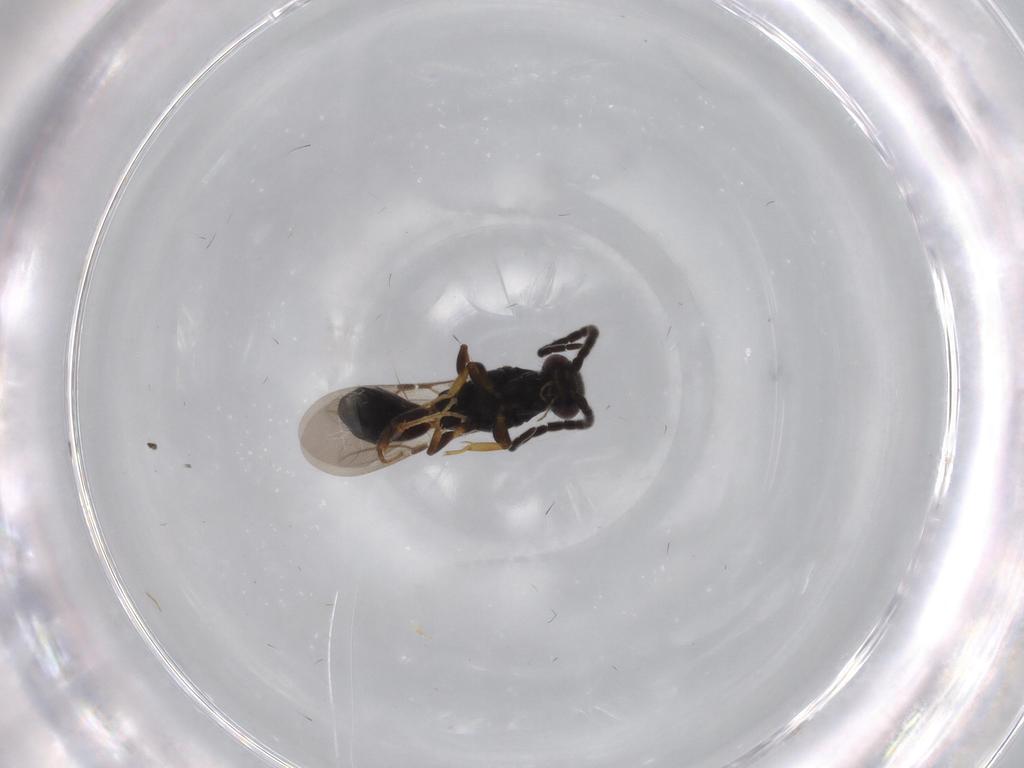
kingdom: Animalia
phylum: Arthropoda
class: Insecta
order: Hymenoptera
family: Bethylidae
